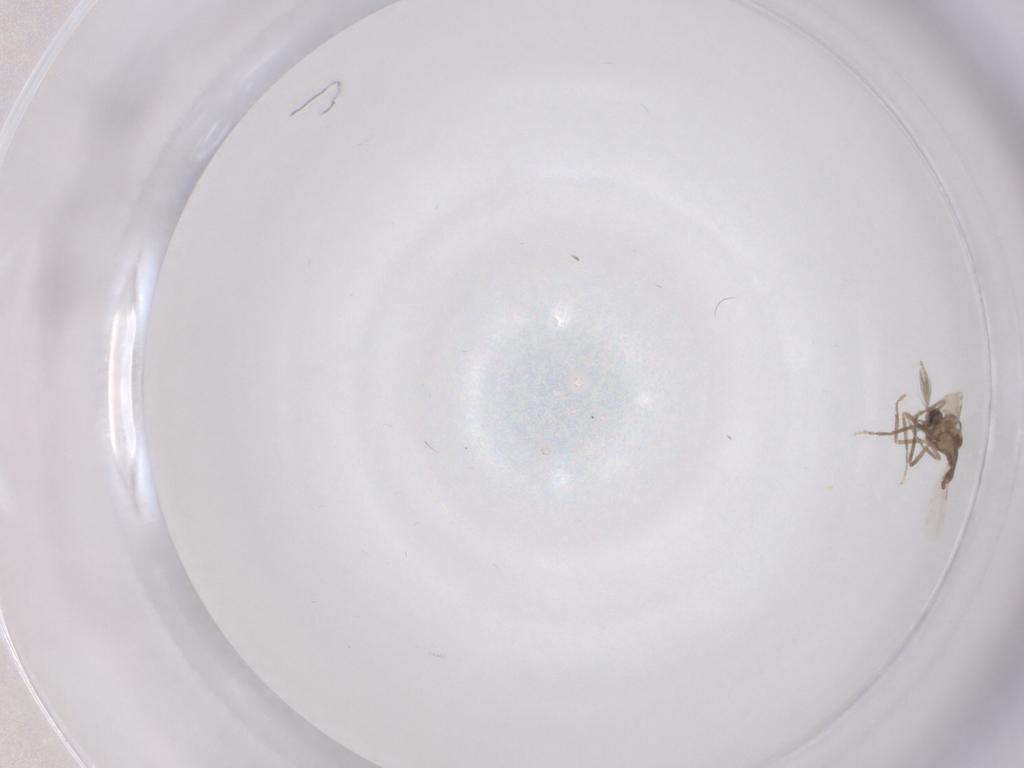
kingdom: Animalia
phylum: Arthropoda
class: Insecta
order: Diptera
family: Ceratopogonidae
